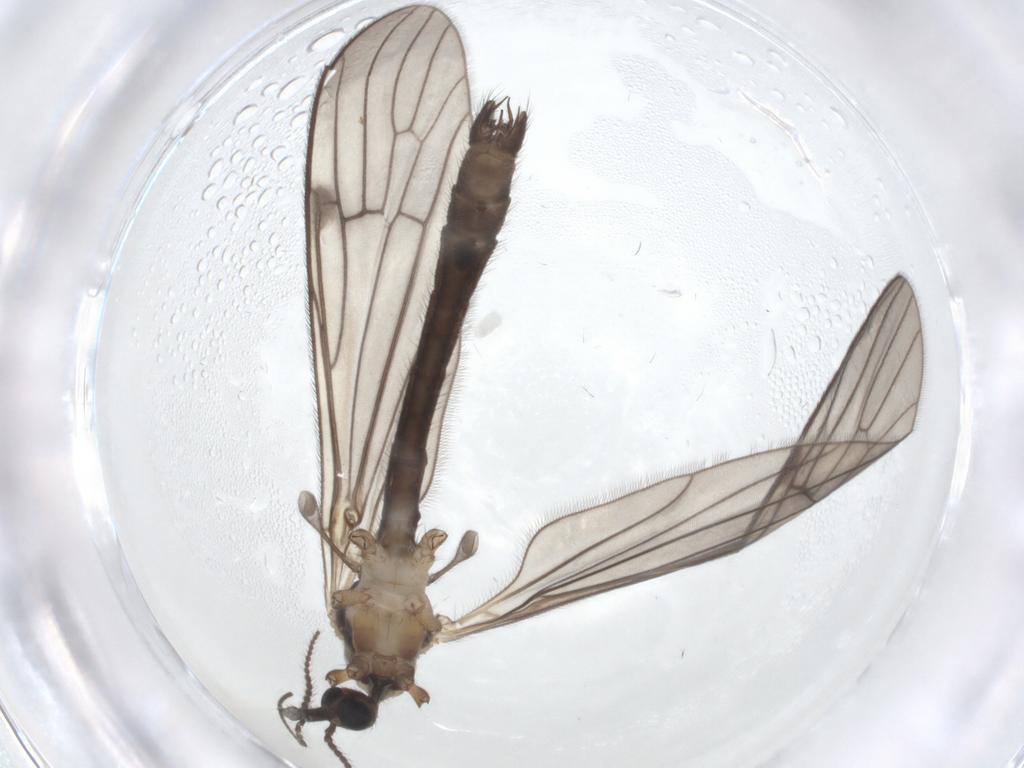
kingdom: Animalia
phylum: Arthropoda
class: Insecta
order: Diptera
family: Limoniidae
